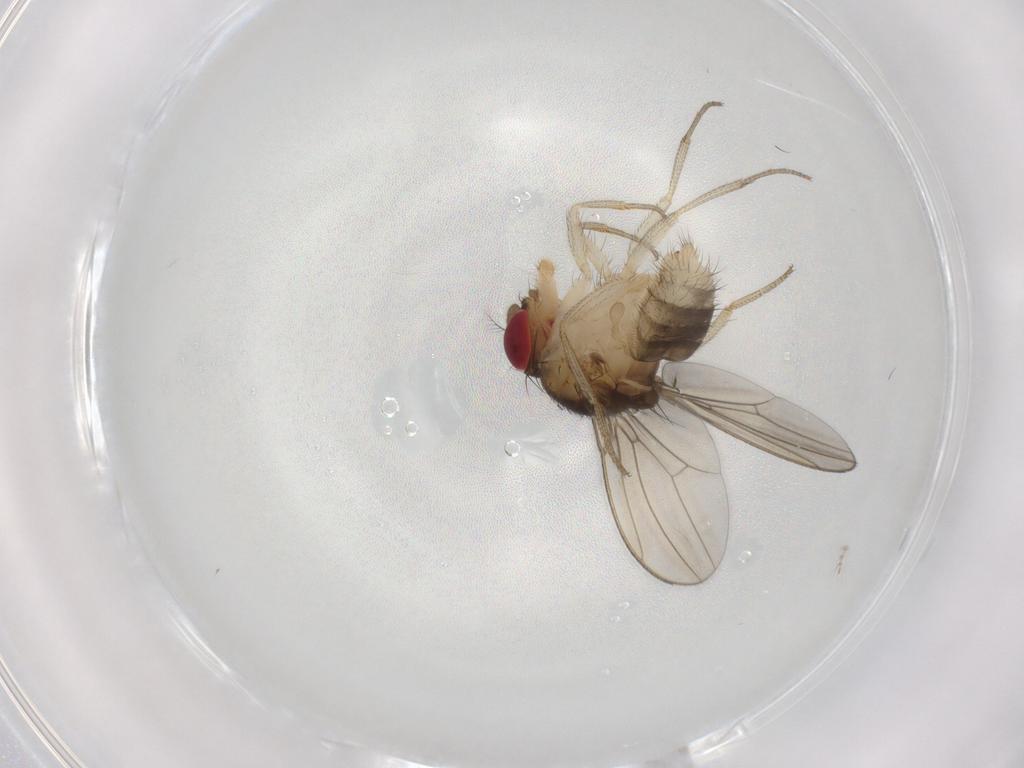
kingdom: Animalia
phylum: Arthropoda
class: Insecta
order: Diptera
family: Drosophilidae
